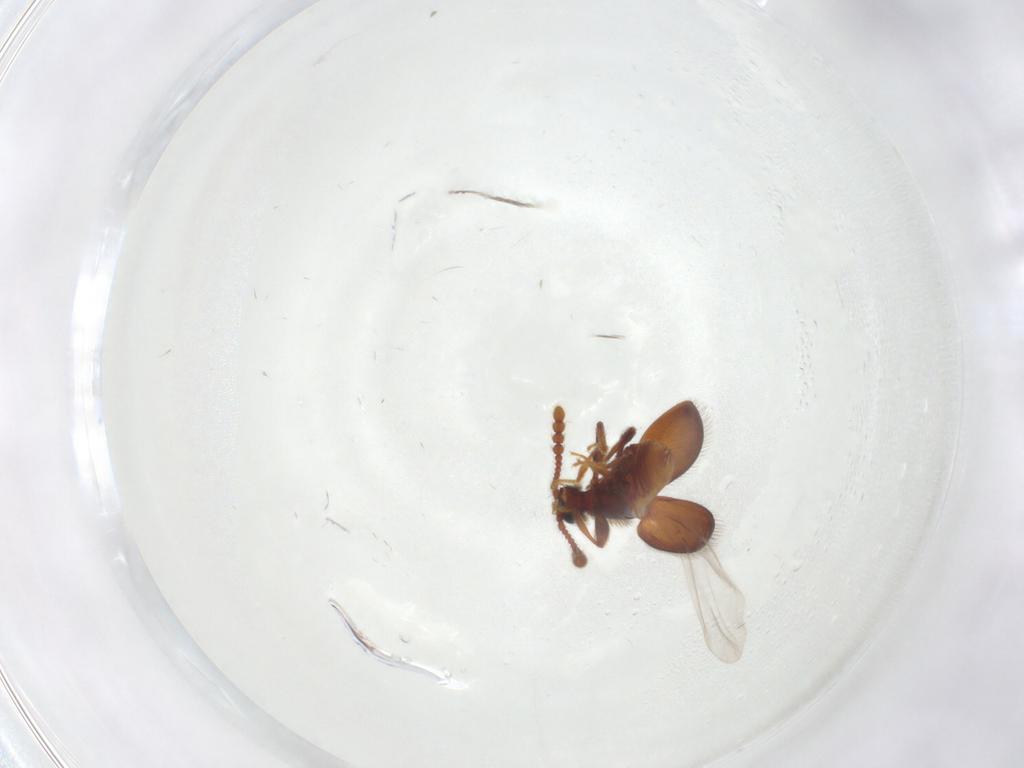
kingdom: Animalia
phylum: Arthropoda
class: Insecta
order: Coleoptera
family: Staphylinidae
